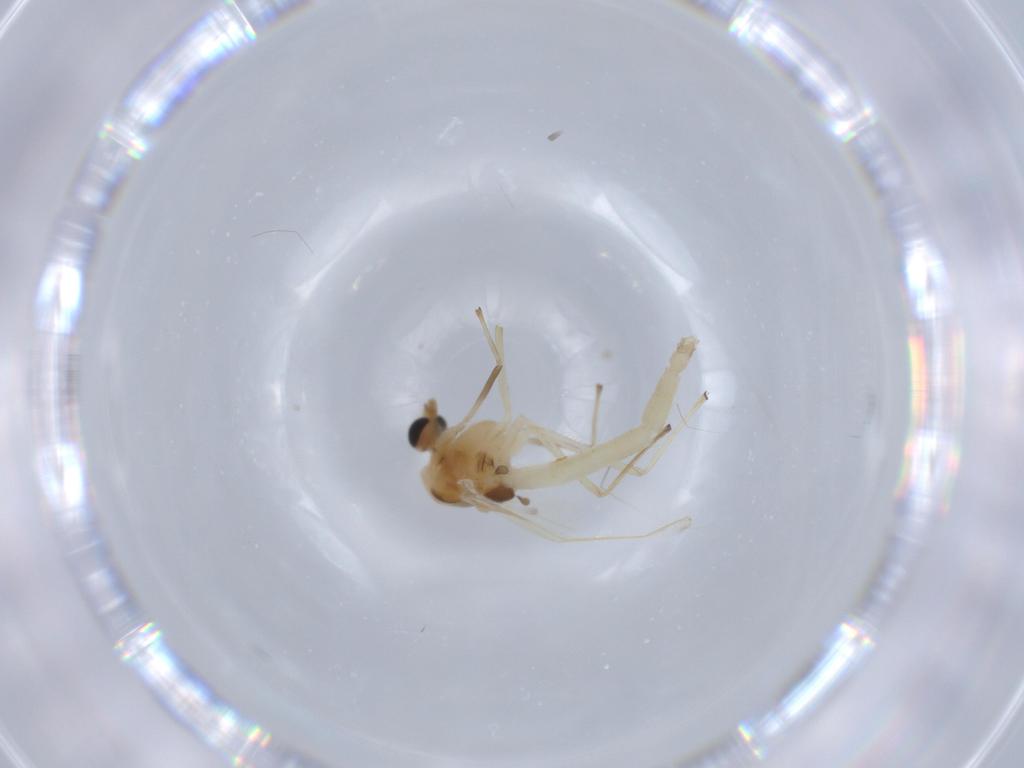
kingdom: Animalia
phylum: Arthropoda
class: Insecta
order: Diptera
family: Chironomidae
